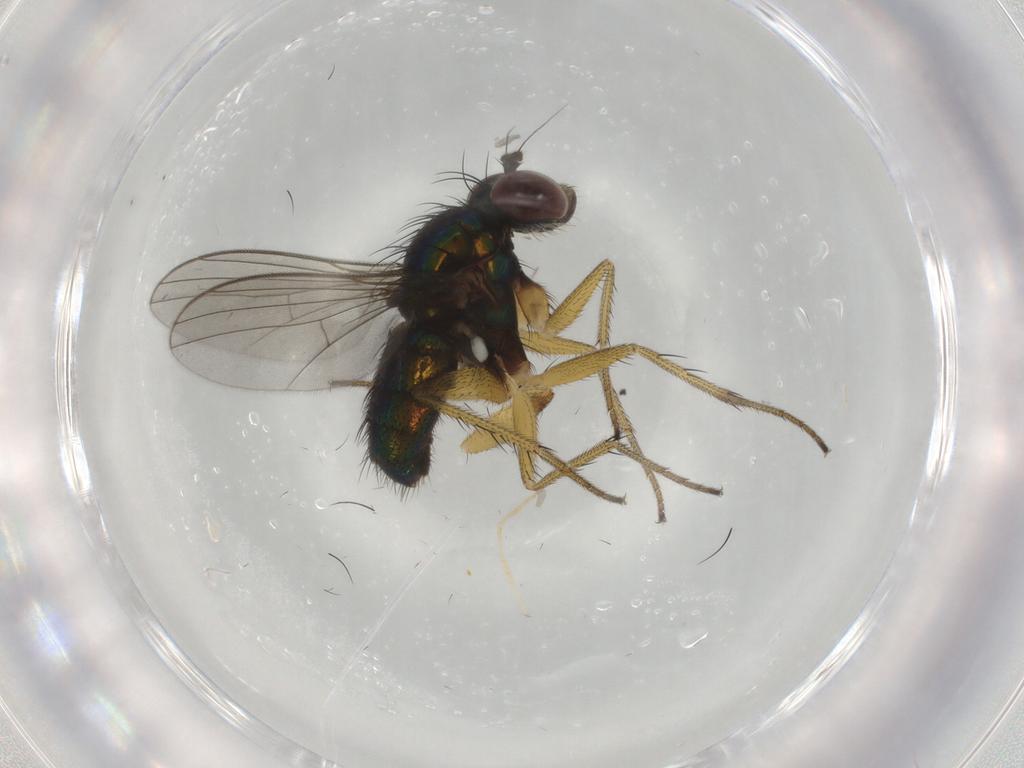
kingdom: Animalia
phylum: Arthropoda
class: Insecta
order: Diptera
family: Dolichopodidae
